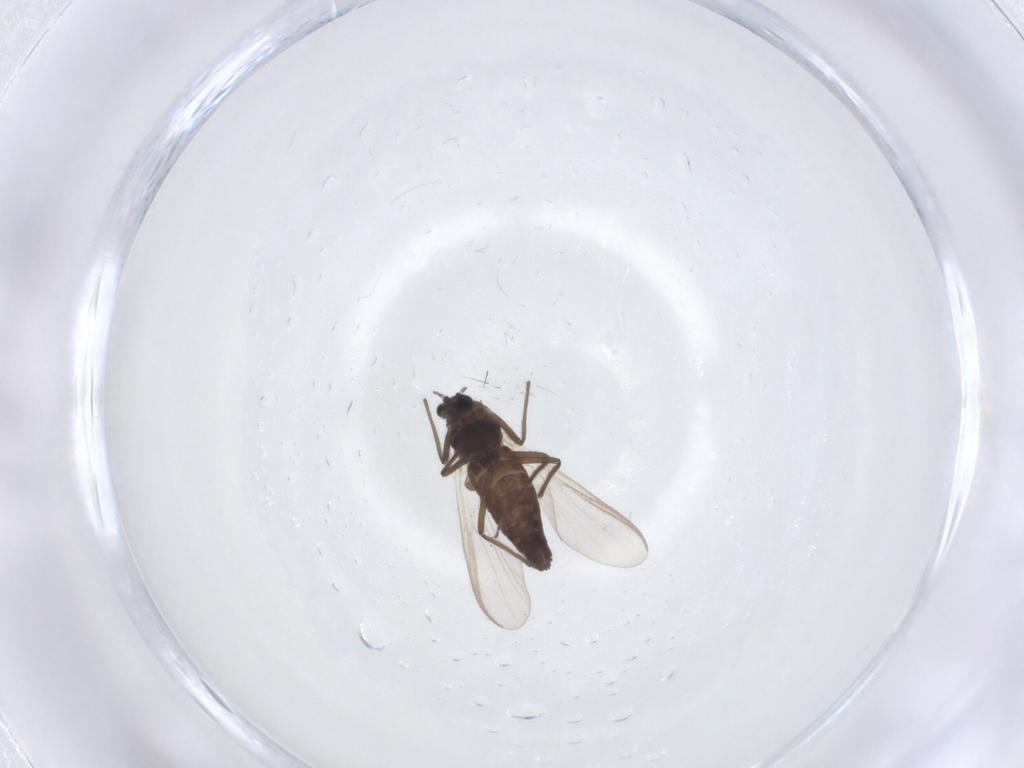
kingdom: Animalia
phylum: Arthropoda
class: Insecta
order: Diptera
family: Chironomidae
